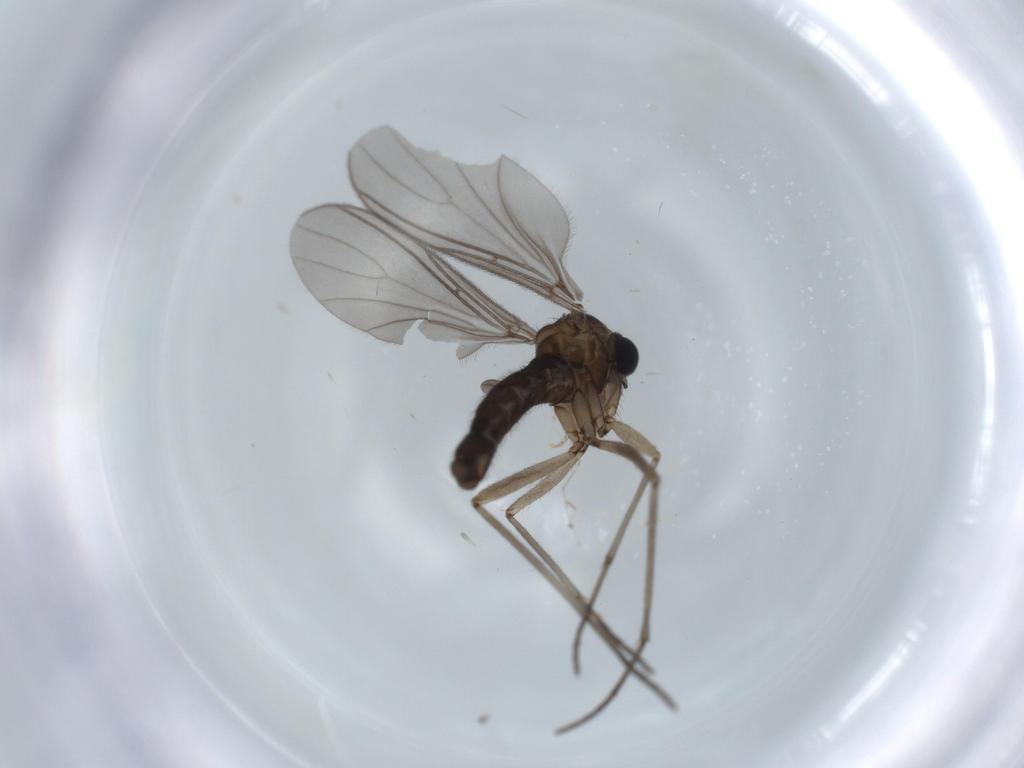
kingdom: Animalia
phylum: Arthropoda
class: Insecta
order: Diptera
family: Sciaridae
